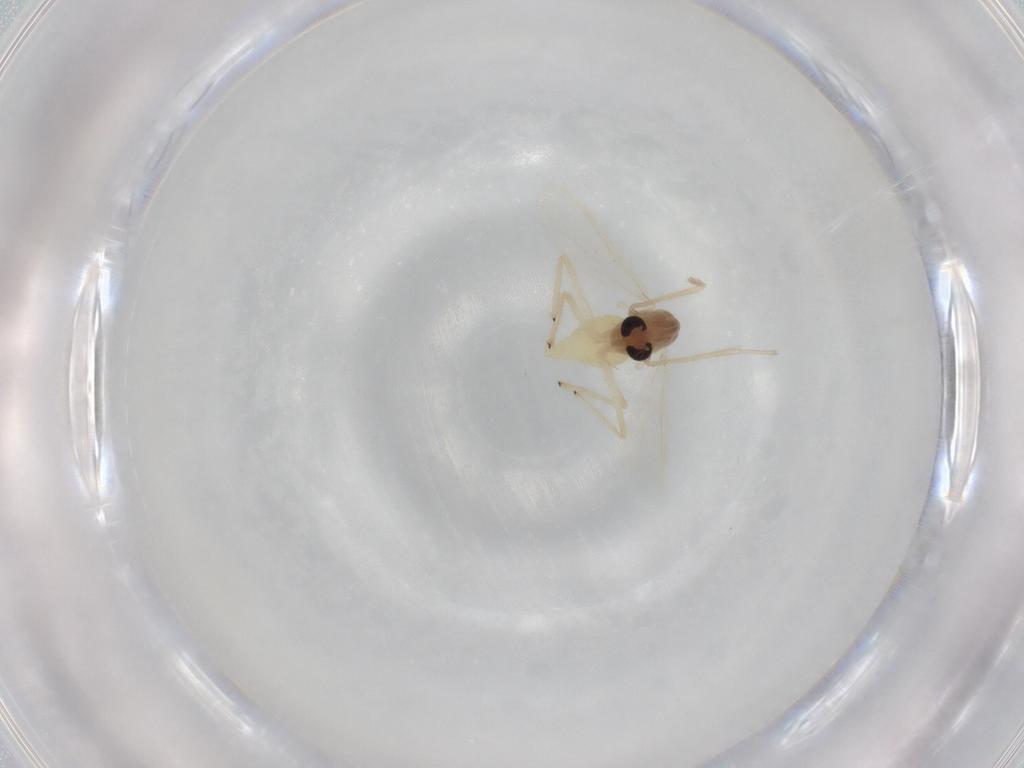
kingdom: Animalia
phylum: Arthropoda
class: Insecta
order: Diptera
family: Chironomidae
